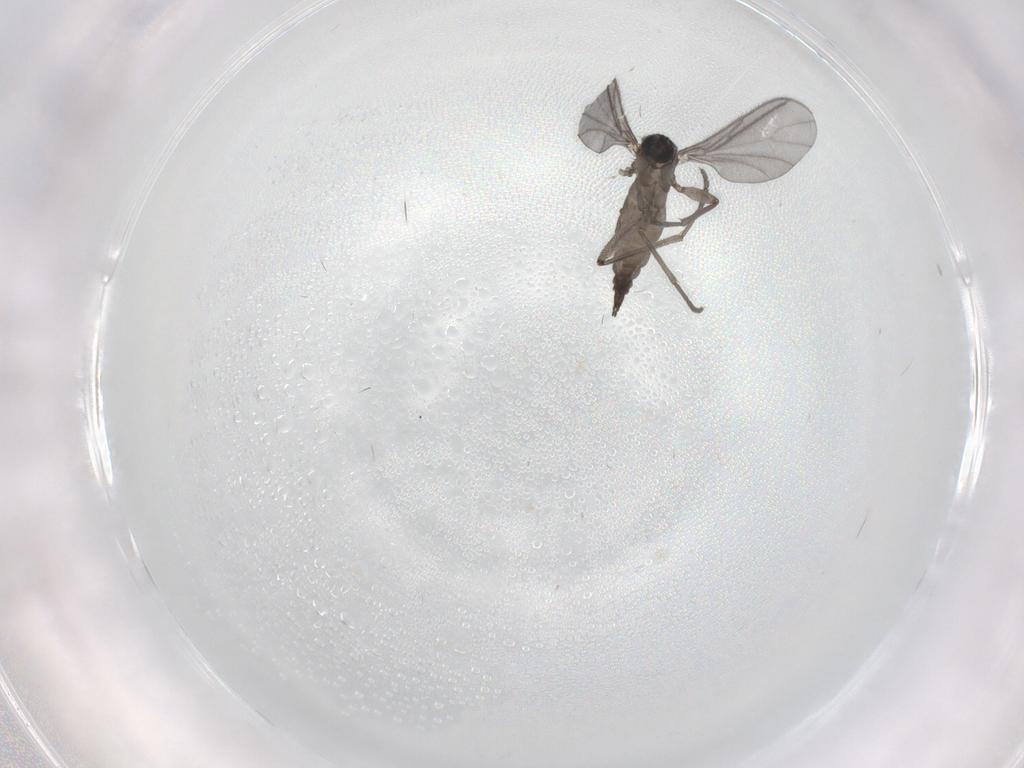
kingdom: Animalia
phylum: Arthropoda
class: Insecta
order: Diptera
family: Sciaridae
